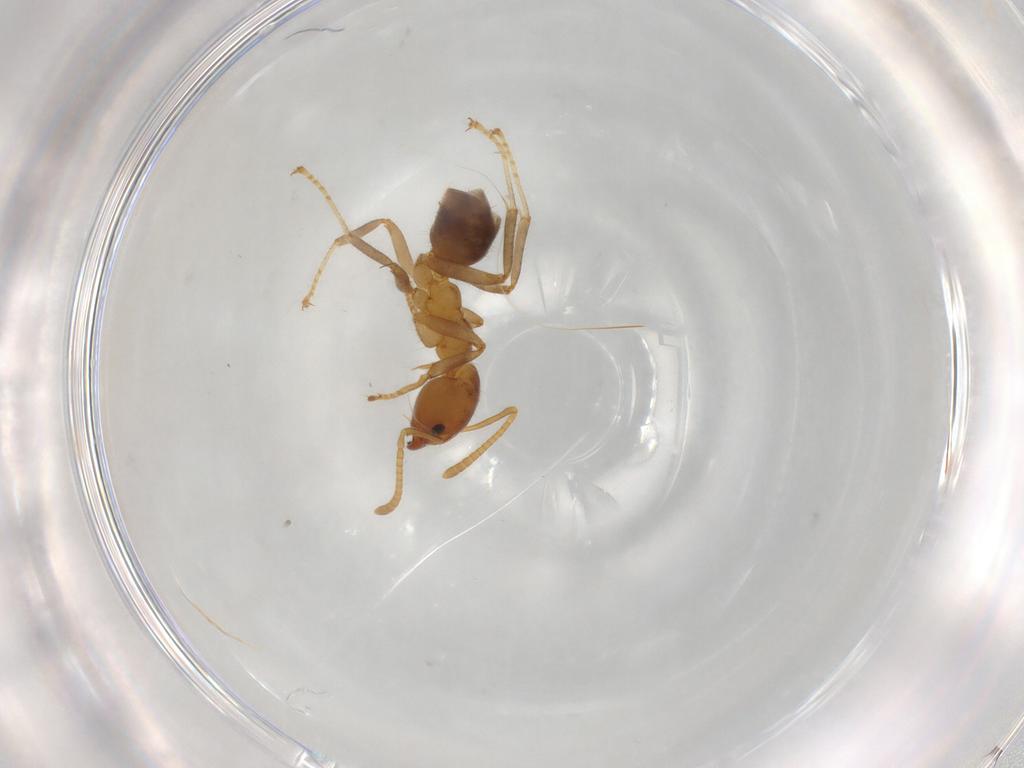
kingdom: Animalia
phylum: Arthropoda
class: Insecta
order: Hymenoptera
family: Formicidae
